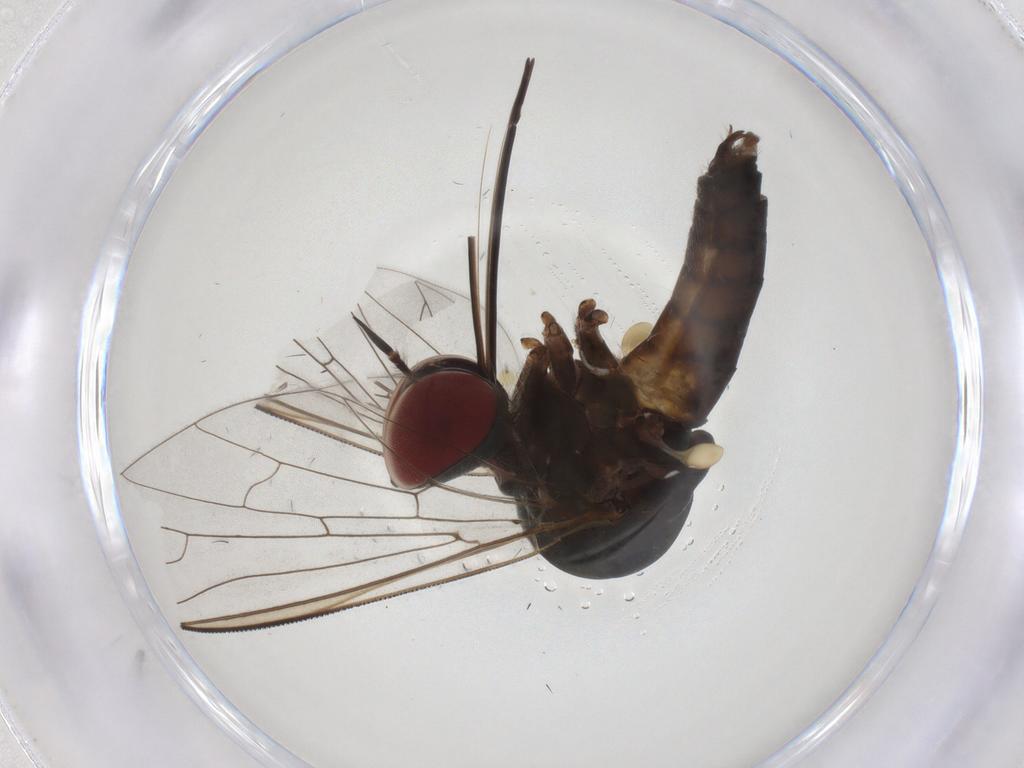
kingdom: Animalia
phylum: Arthropoda
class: Insecta
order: Diptera
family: Bombyliidae
